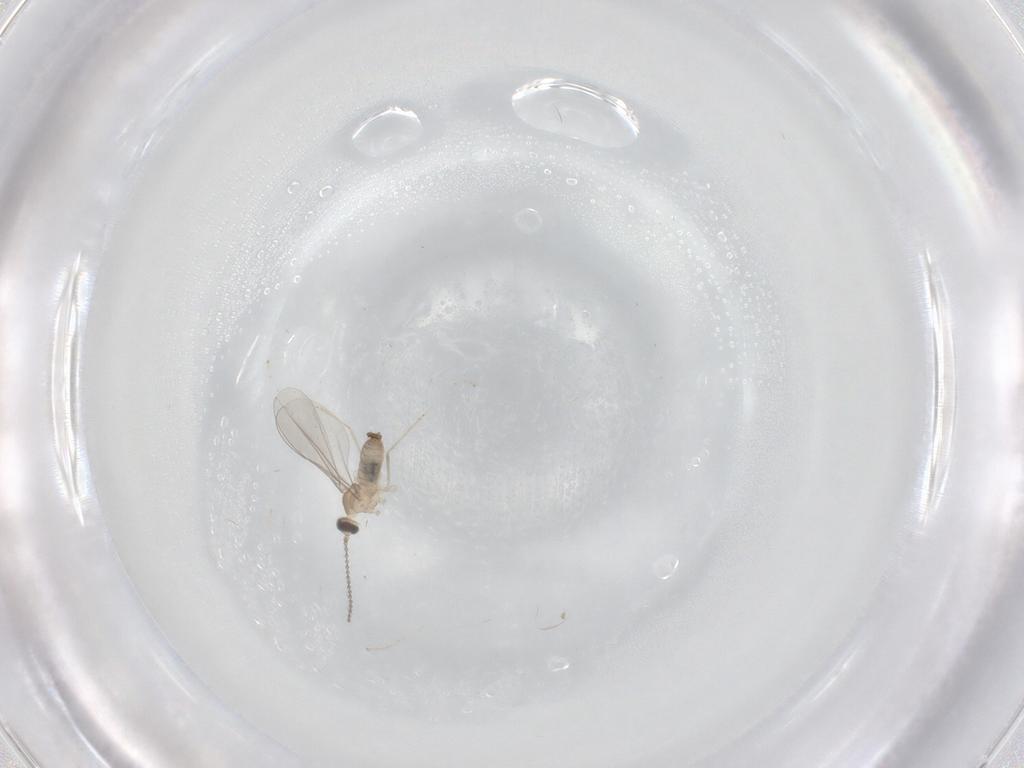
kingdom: Animalia
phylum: Arthropoda
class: Insecta
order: Diptera
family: Cecidomyiidae
